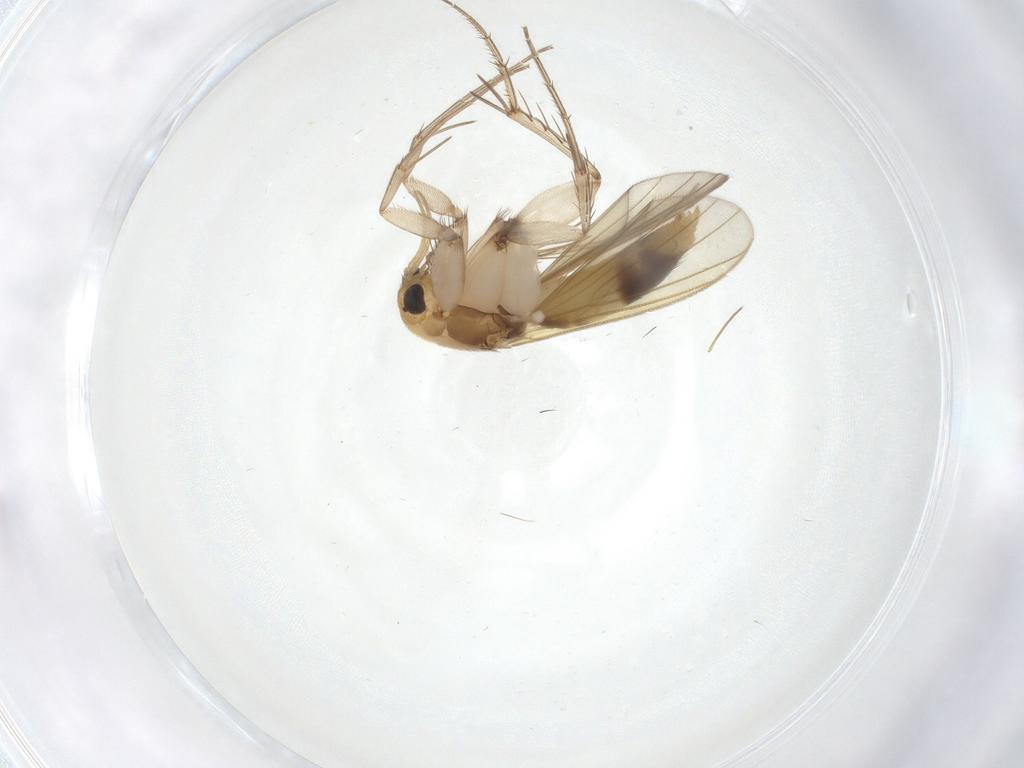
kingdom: Animalia
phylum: Arthropoda
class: Insecta
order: Diptera
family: Mycetophilidae
